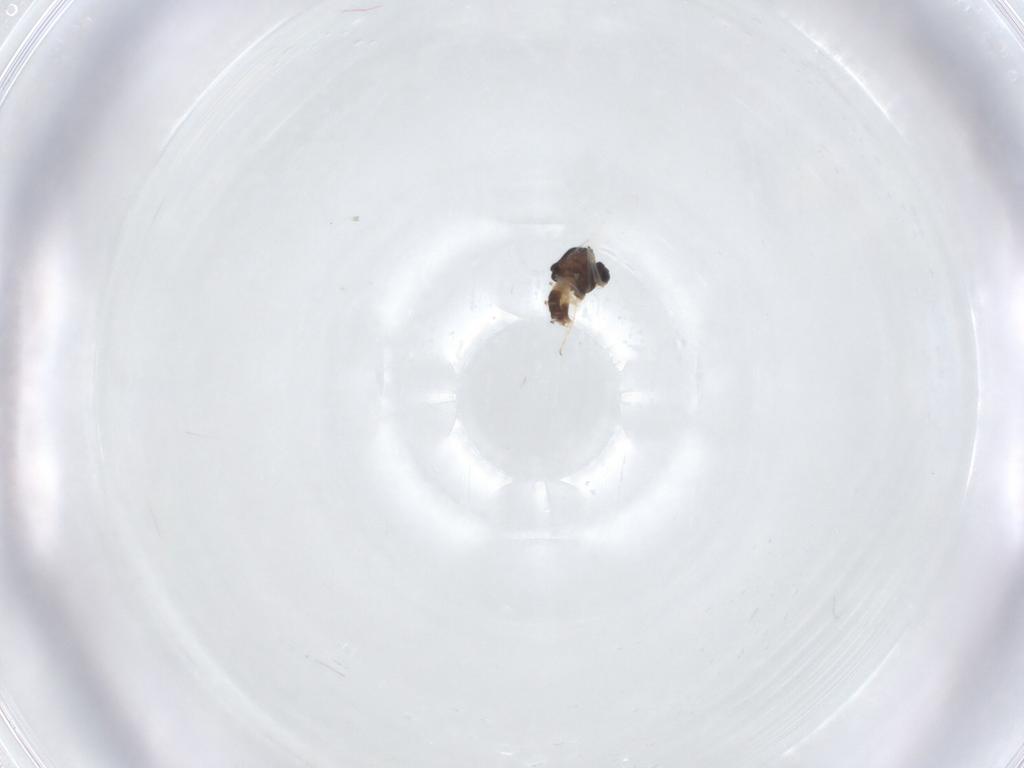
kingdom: Animalia
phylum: Arthropoda
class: Insecta
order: Diptera
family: Chironomidae
